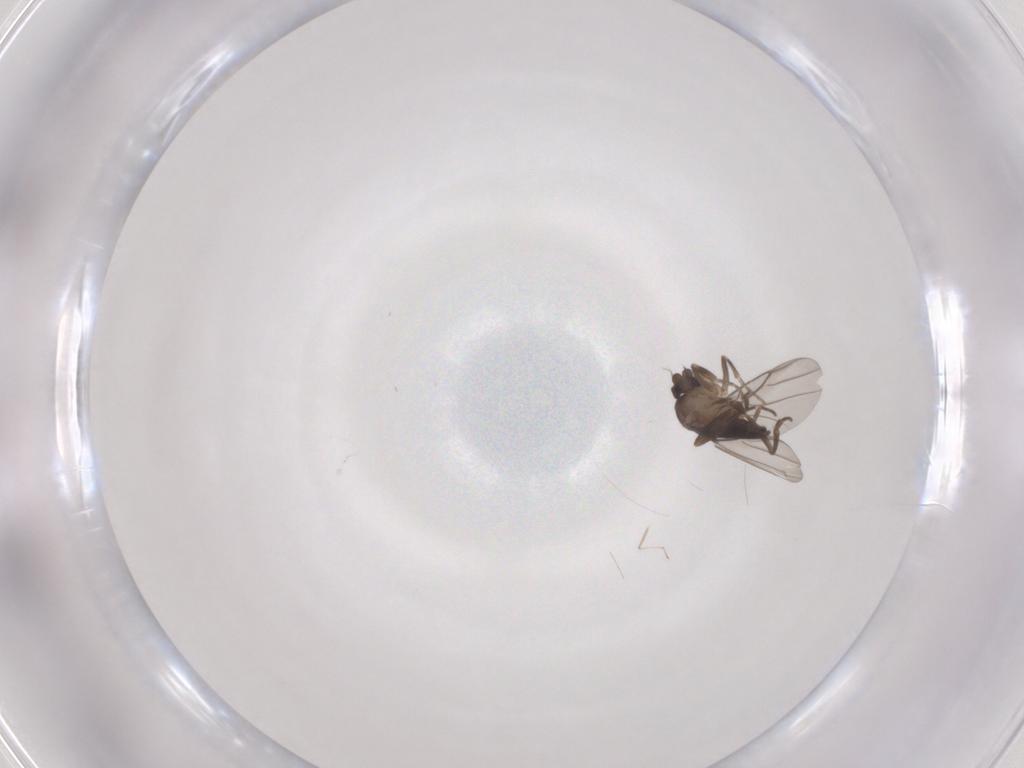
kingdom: Animalia
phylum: Arthropoda
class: Insecta
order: Diptera
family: Phoridae
